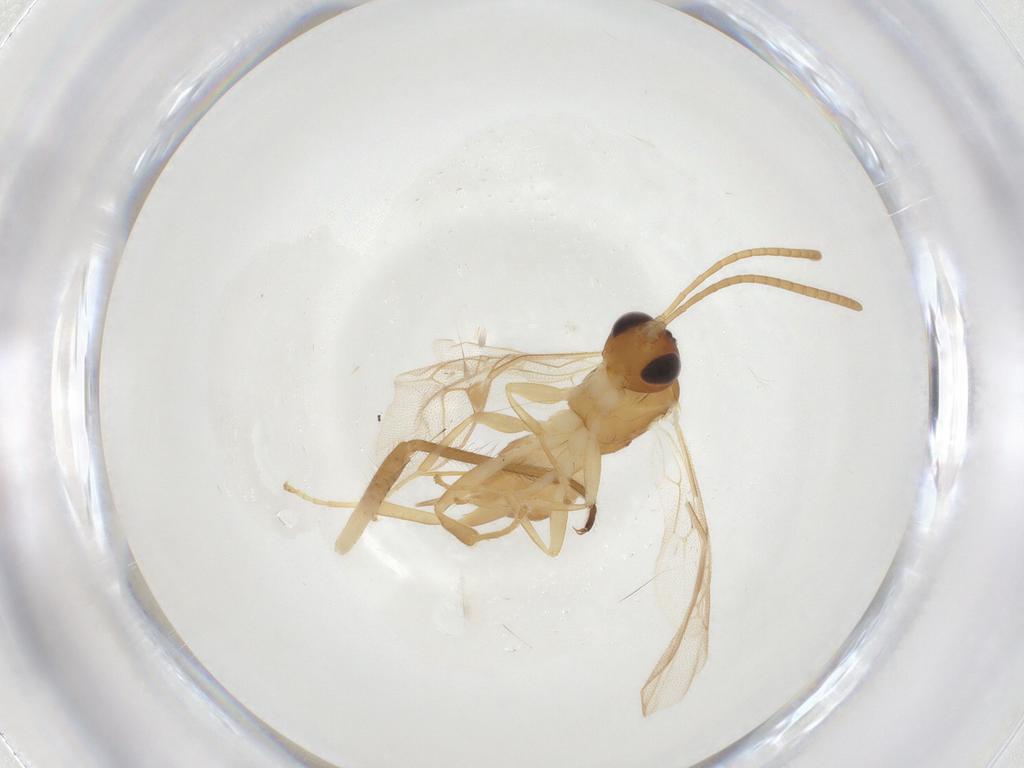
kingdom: Animalia
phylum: Arthropoda
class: Insecta
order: Hymenoptera
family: Ichneumonidae
